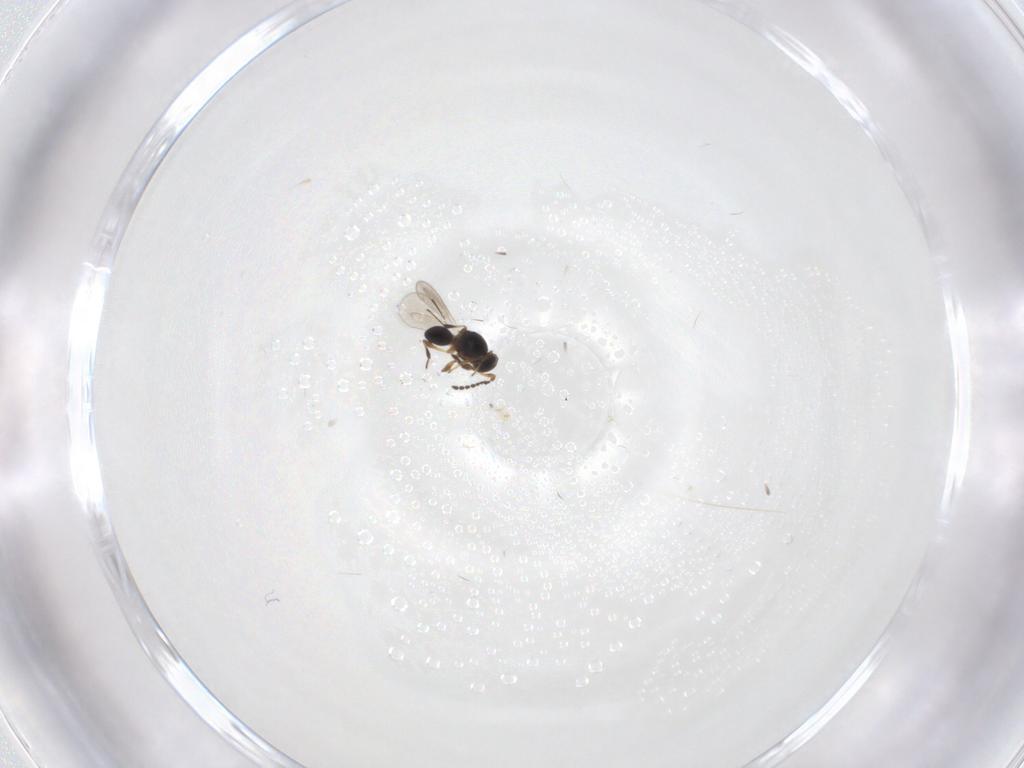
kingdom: Animalia
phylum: Arthropoda
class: Insecta
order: Hymenoptera
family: Platygastridae
